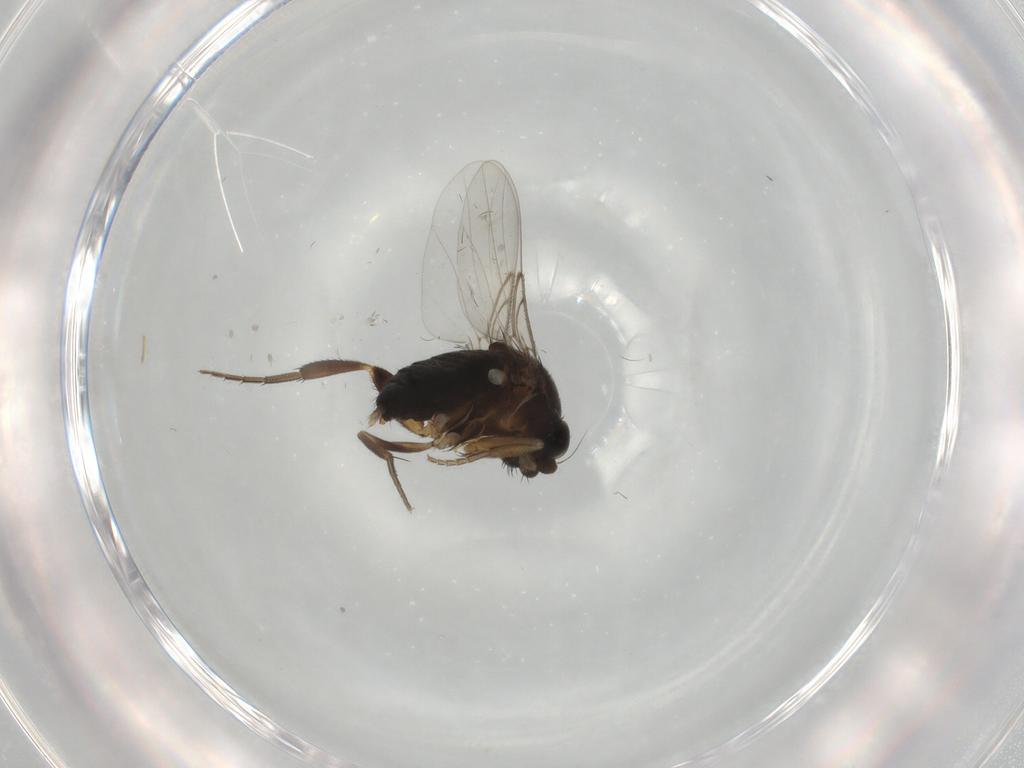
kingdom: Animalia
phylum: Arthropoda
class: Insecta
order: Diptera
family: Phoridae
